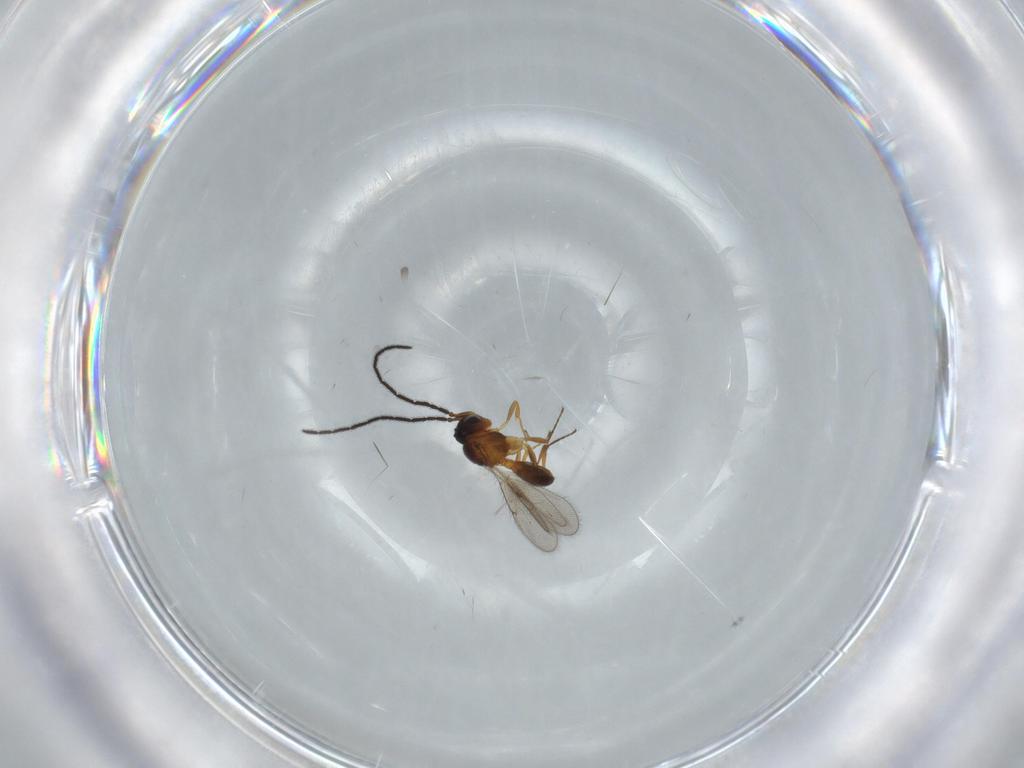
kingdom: Animalia
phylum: Arthropoda
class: Insecta
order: Hymenoptera
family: Scelionidae
